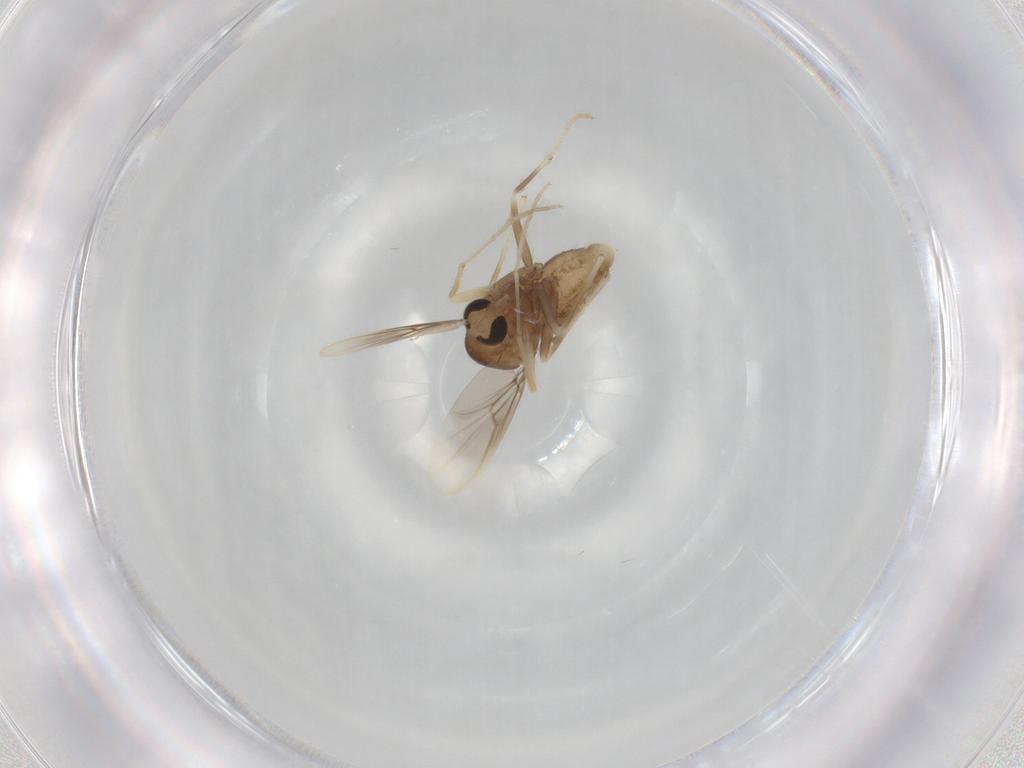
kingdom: Animalia
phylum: Arthropoda
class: Insecta
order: Diptera
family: Chironomidae
